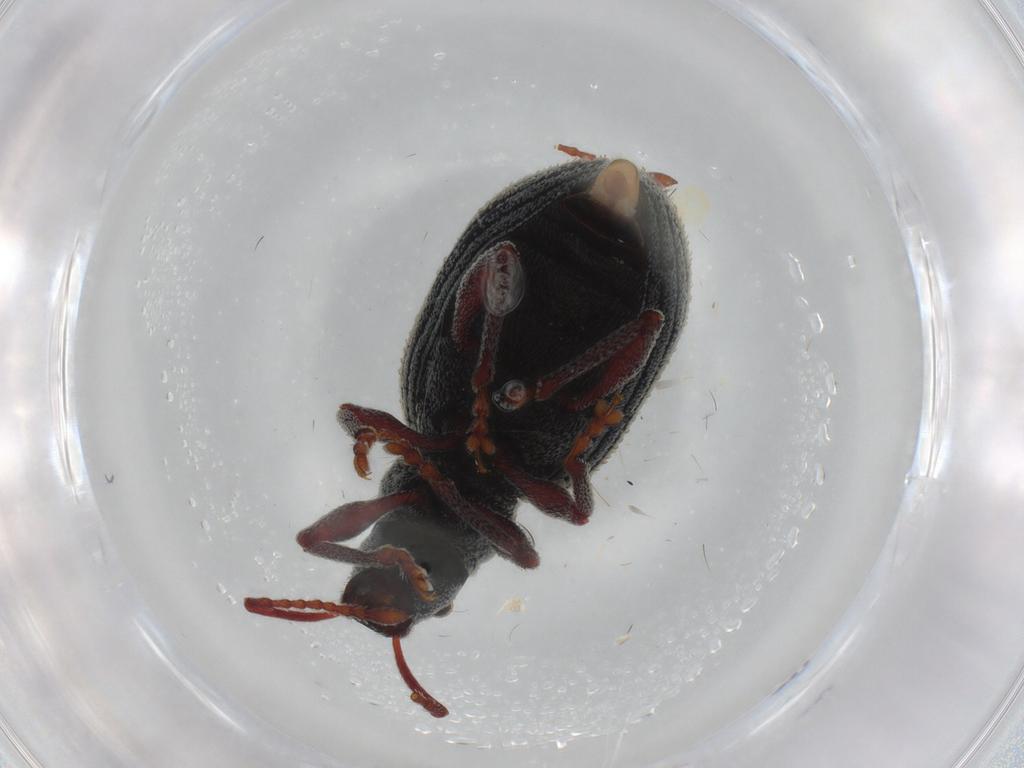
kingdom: Animalia
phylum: Arthropoda
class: Insecta
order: Coleoptera
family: Curculionidae
